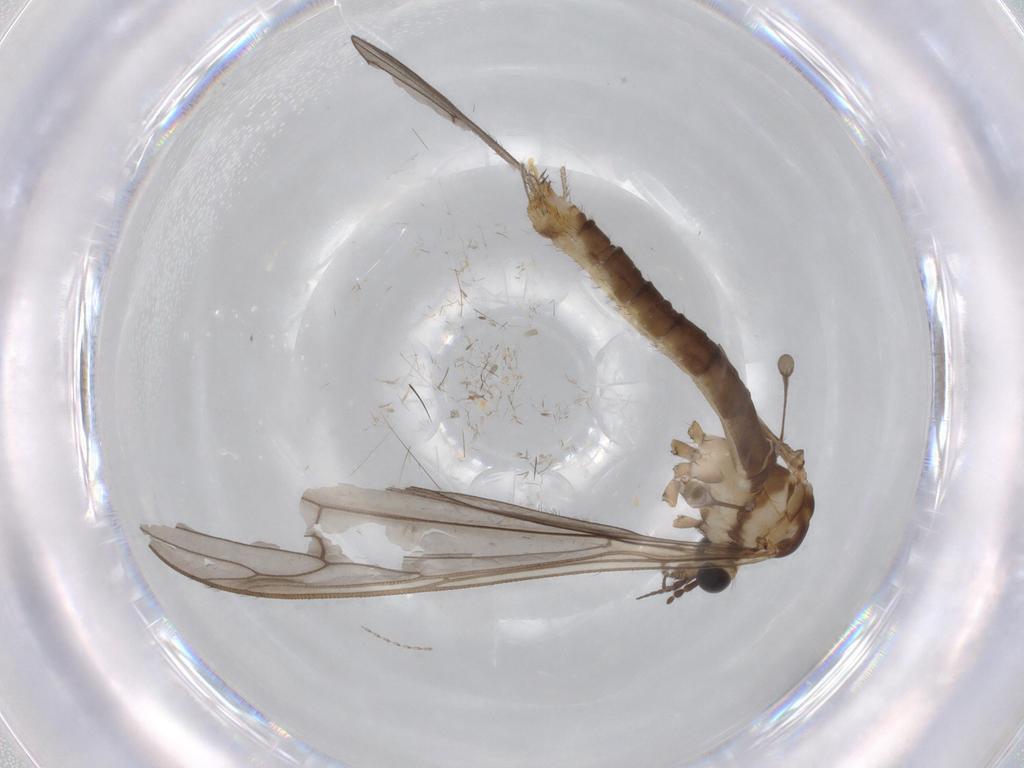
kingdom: Animalia
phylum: Arthropoda
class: Insecta
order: Diptera
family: Cecidomyiidae
